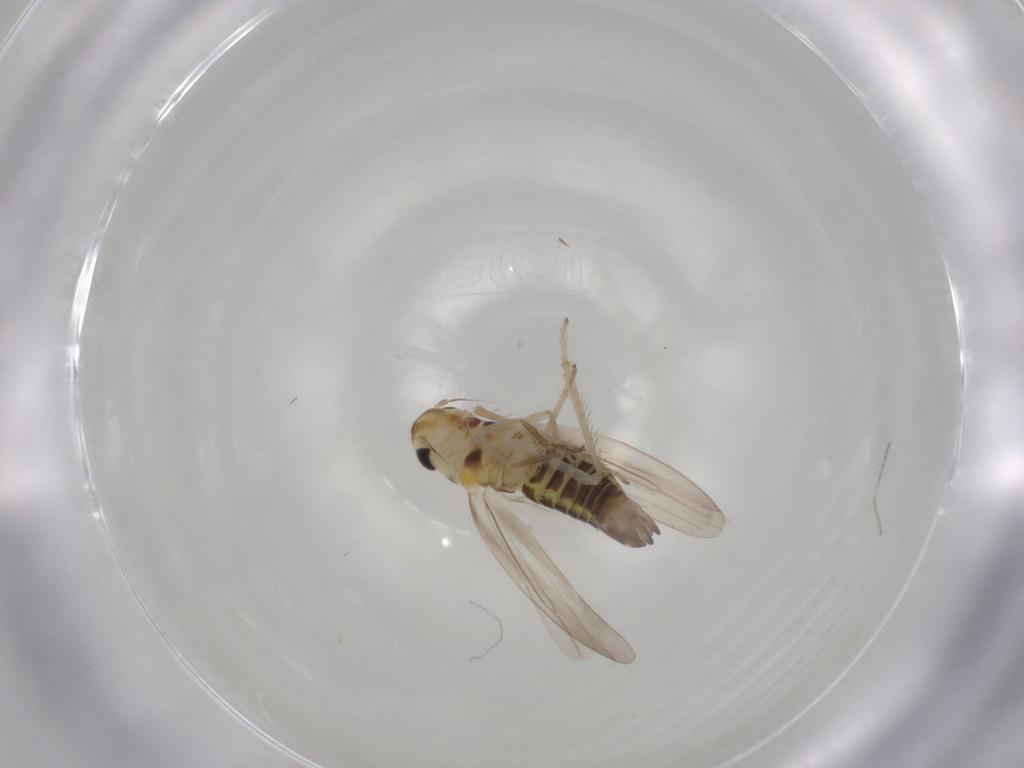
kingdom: Animalia
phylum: Arthropoda
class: Insecta
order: Hemiptera
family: Cicadellidae
